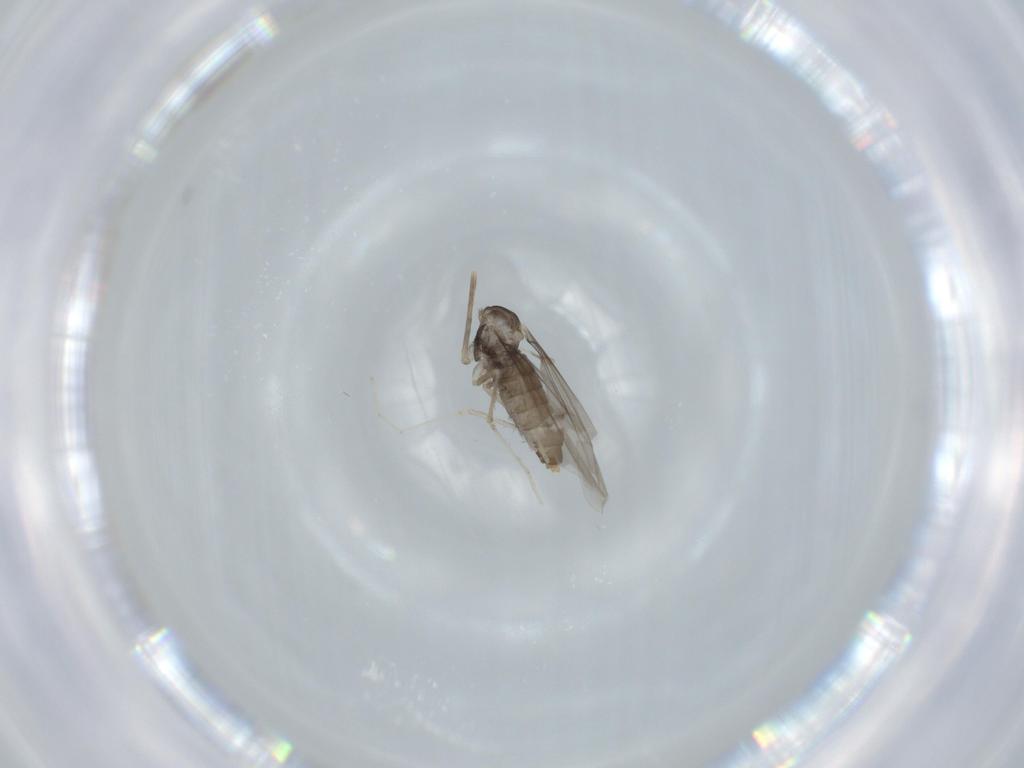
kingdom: Animalia
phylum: Arthropoda
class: Insecta
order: Diptera
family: Cecidomyiidae
